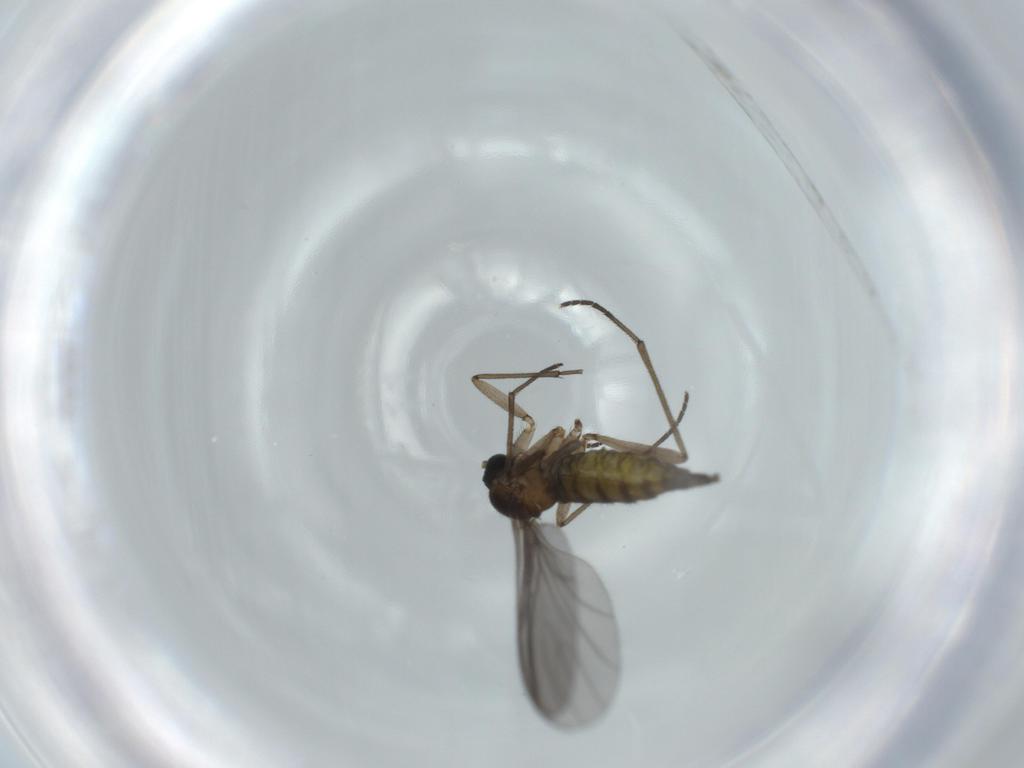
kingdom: Animalia
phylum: Arthropoda
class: Insecta
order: Diptera
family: Sciaridae
